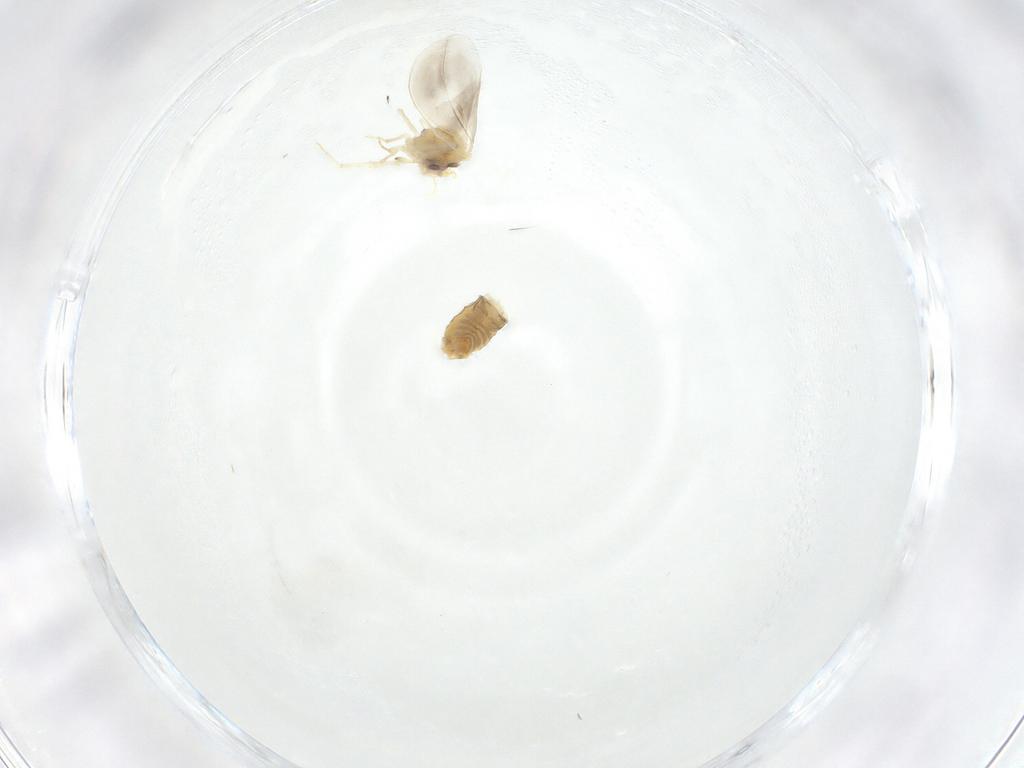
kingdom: Animalia
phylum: Arthropoda
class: Insecta
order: Hemiptera
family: Aleyrodidae
